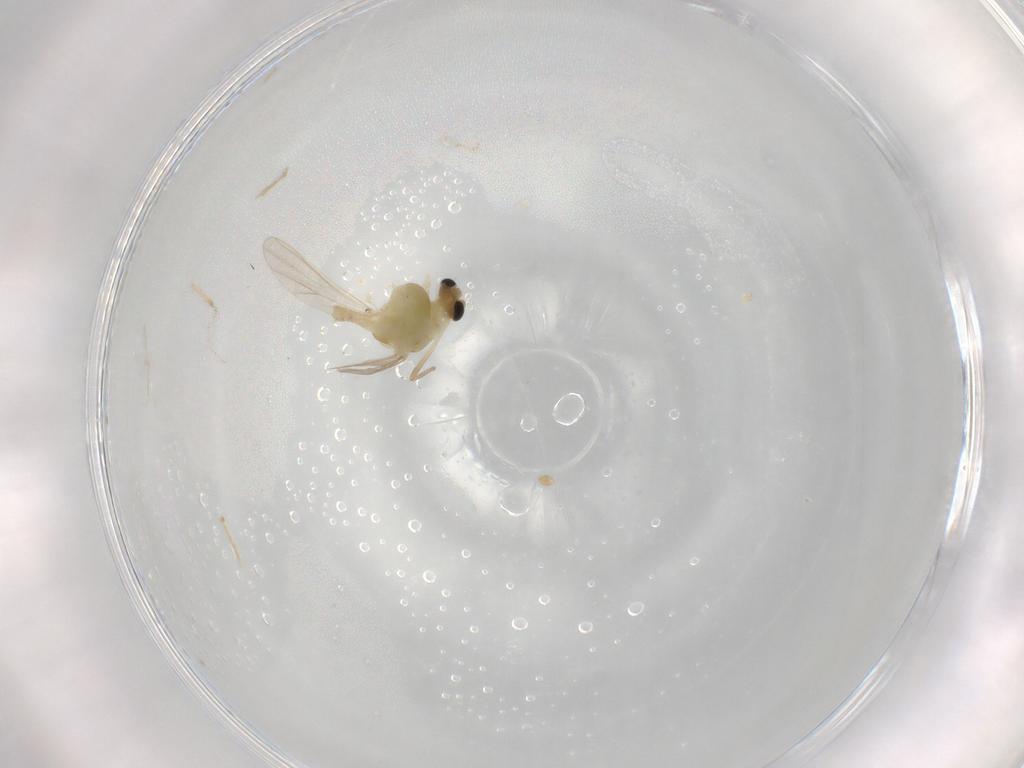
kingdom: Animalia
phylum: Arthropoda
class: Insecta
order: Diptera
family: Chironomidae
